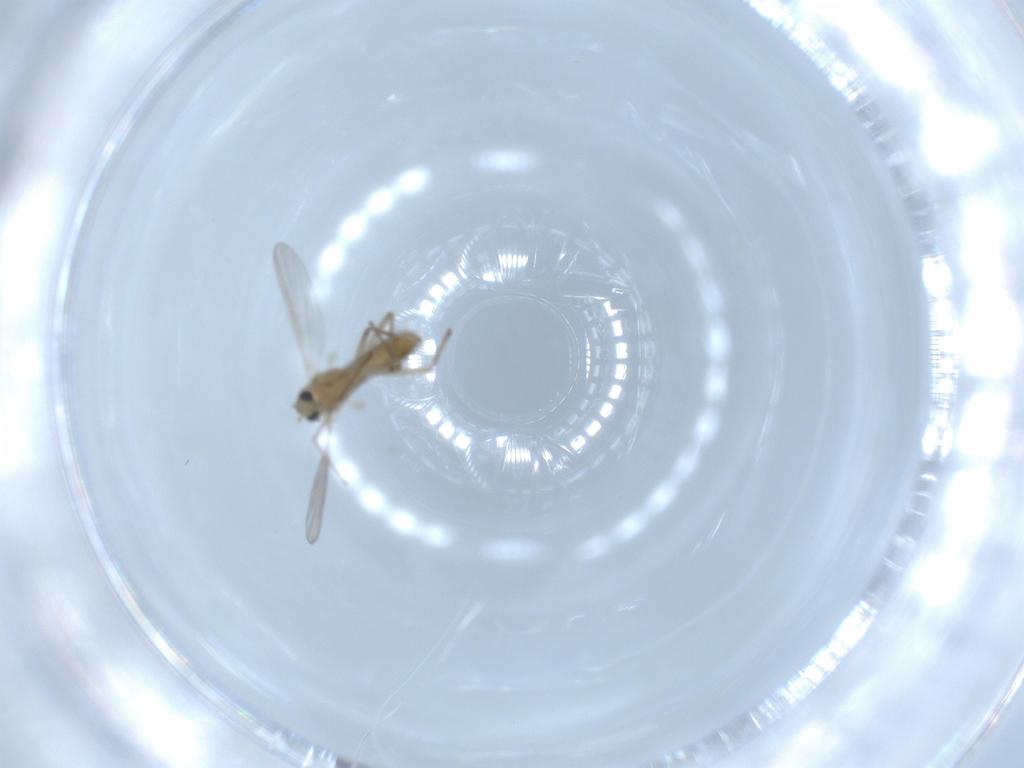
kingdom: Animalia
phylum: Arthropoda
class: Insecta
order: Diptera
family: Chironomidae
